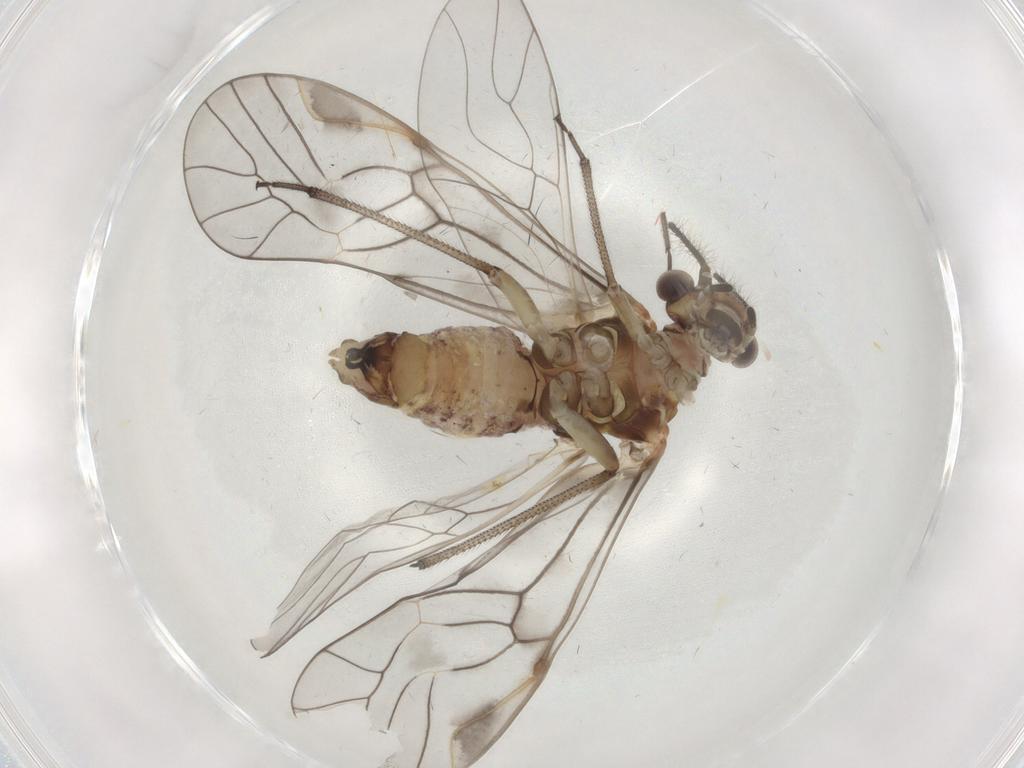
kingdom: Animalia
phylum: Arthropoda
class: Insecta
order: Psocodea
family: Archipsocidae
